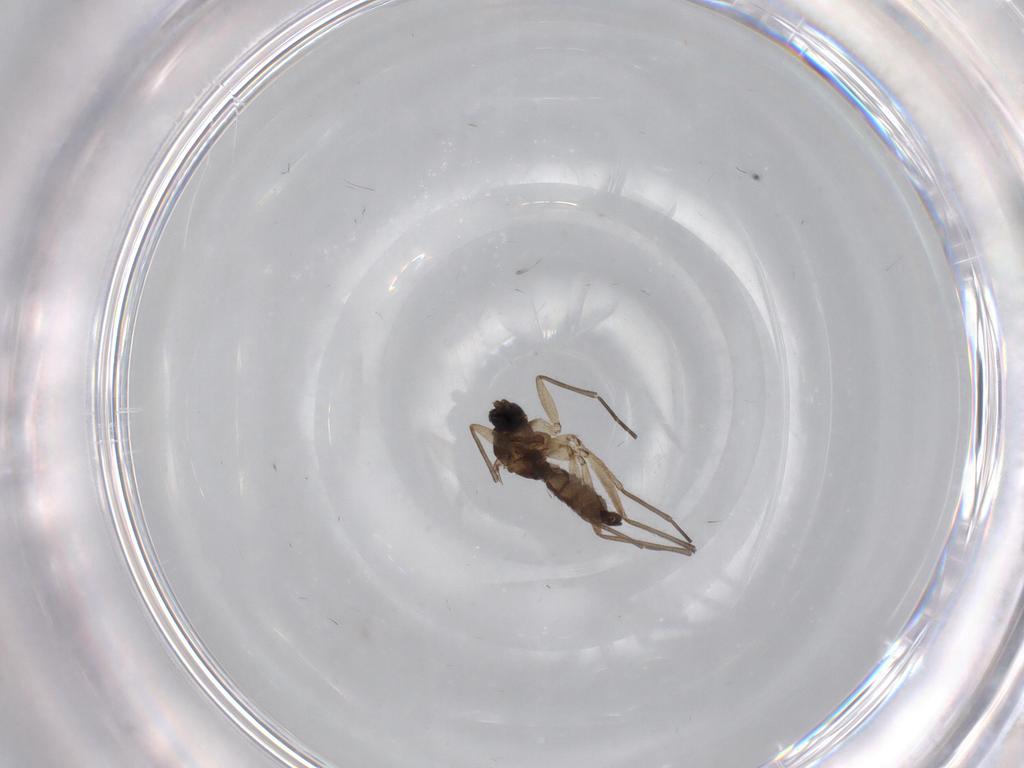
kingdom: Animalia
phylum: Arthropoda
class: Insecta
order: Diptera
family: Sciaridae
